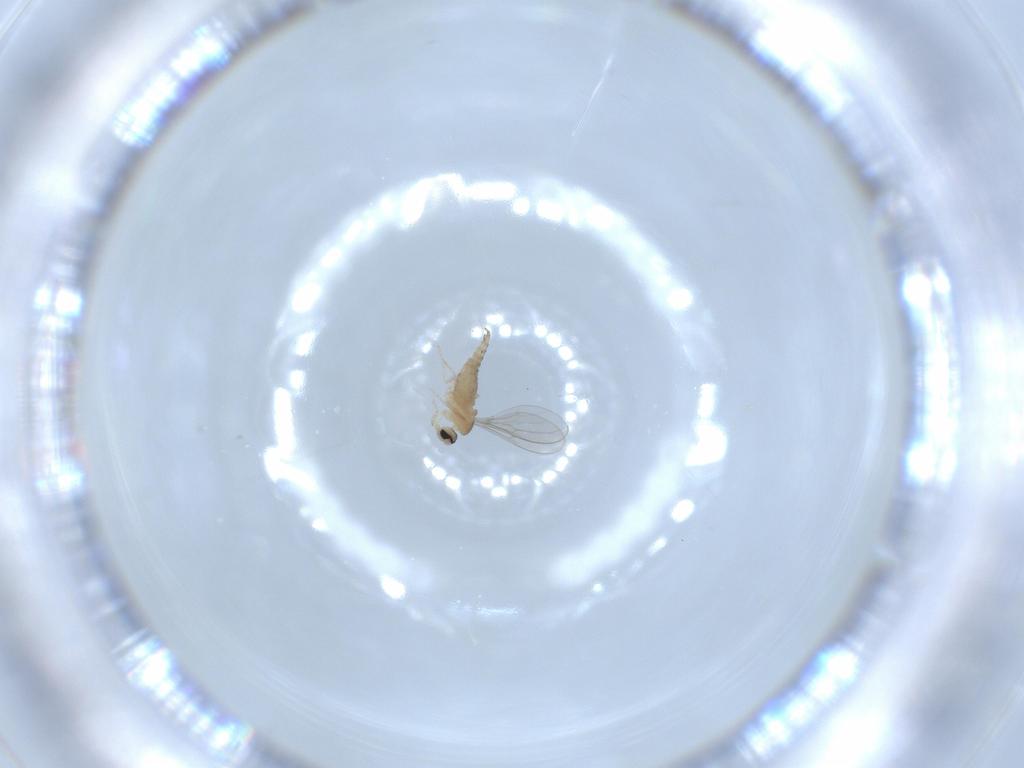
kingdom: Animalia
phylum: Arthropoda
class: Insecta
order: Diptera
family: Cecidomyiidae
